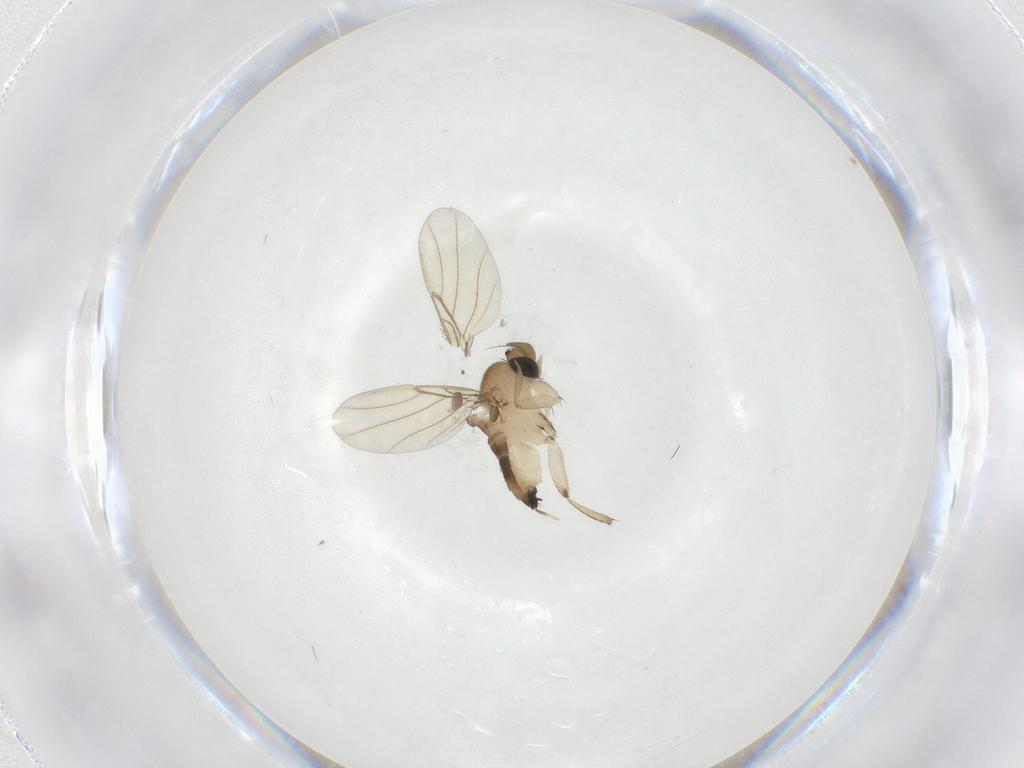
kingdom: Animalia
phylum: Arthropoda
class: Insecta
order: Diptera
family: Phoridae
